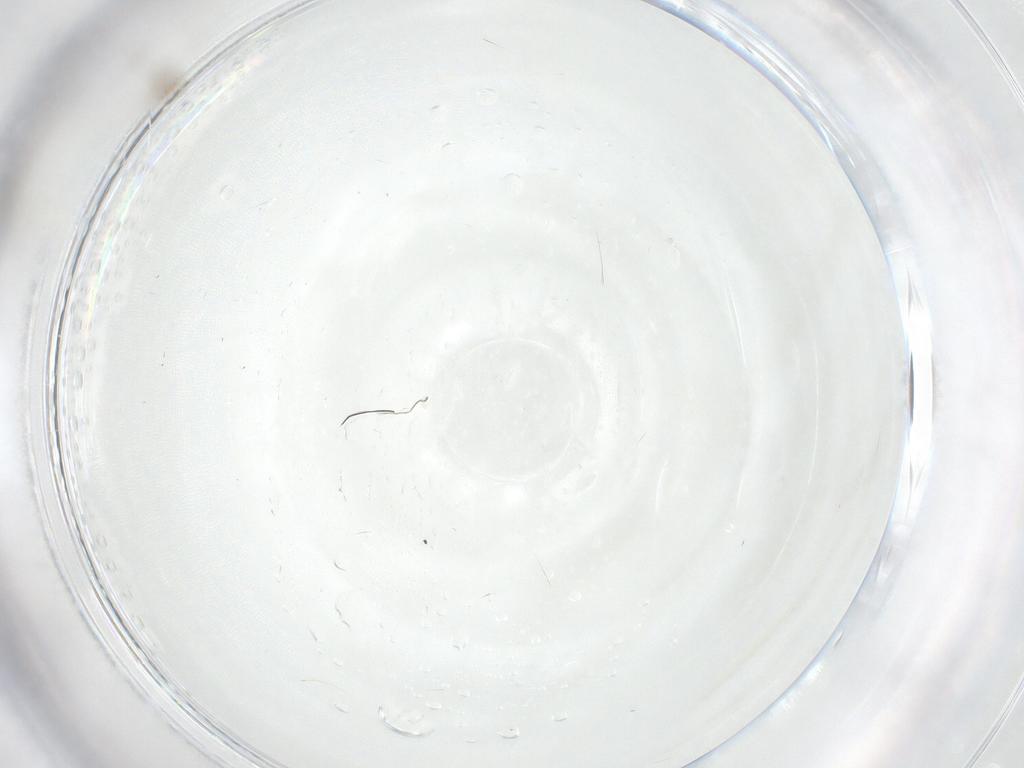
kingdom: Animalia
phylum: Arthropoda
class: Insecta
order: Diptera
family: Cecidomyiidae
